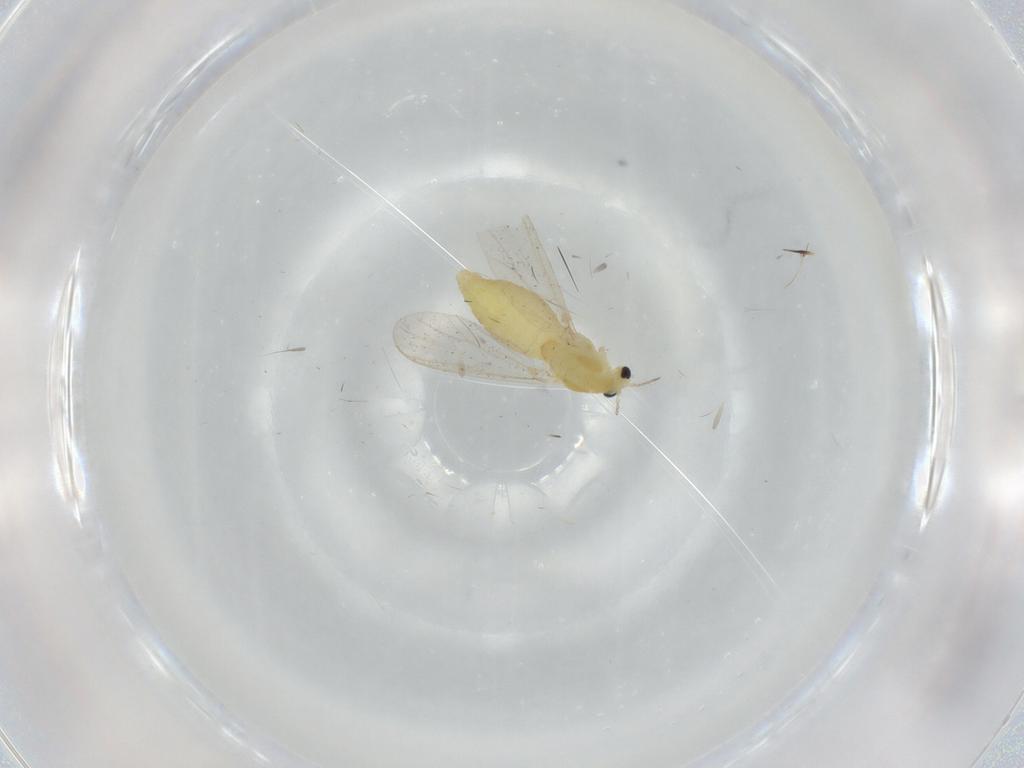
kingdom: Animalia
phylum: Arthropoda
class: Insecta
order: Diptera
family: Chironomidae
